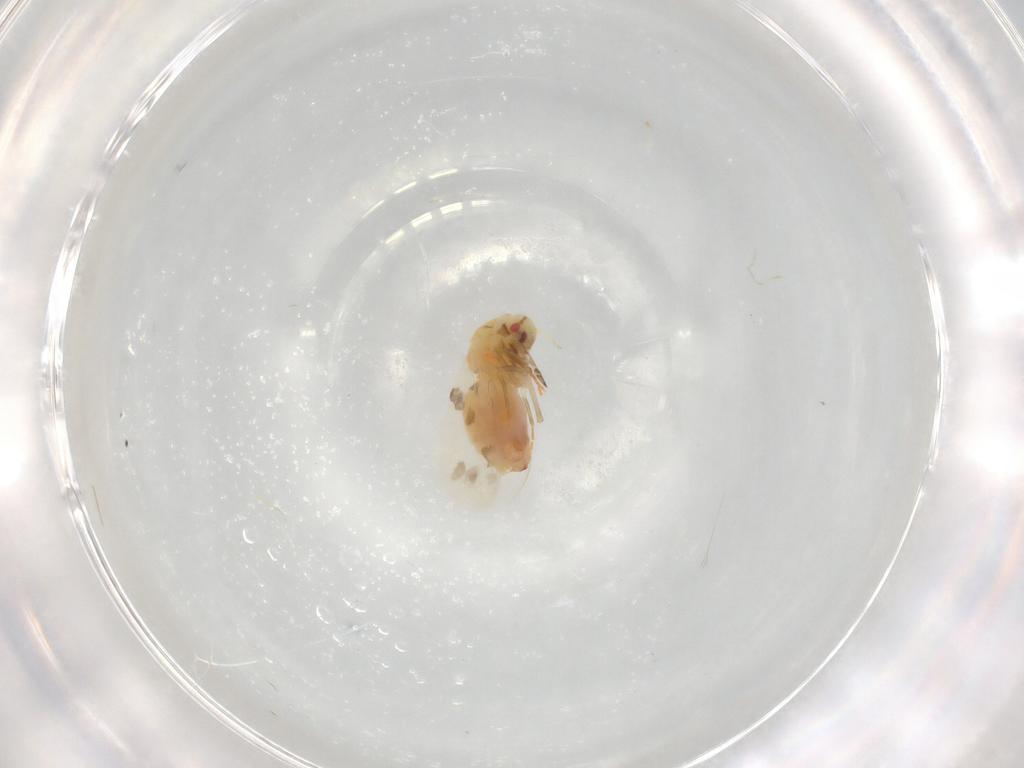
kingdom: Animalia
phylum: Arthropoda
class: Insecta
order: Hemiptera
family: Aleyrodidae
